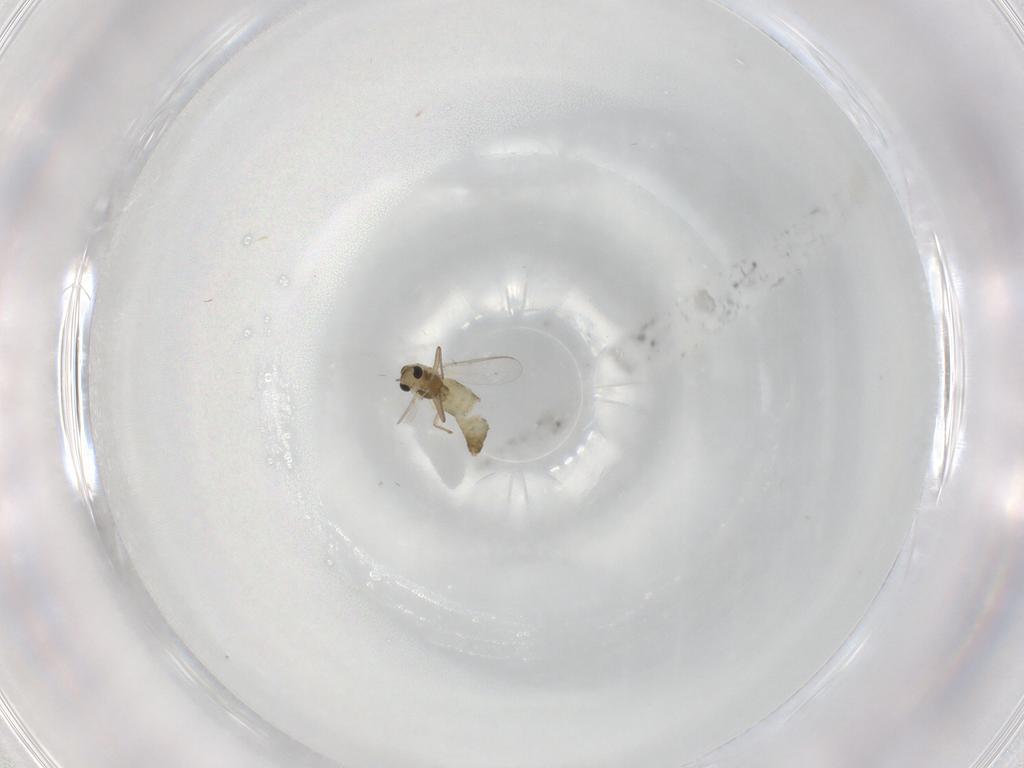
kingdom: Animalia
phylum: Arthropoda
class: Insecta
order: Diptera
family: Chironomidae
